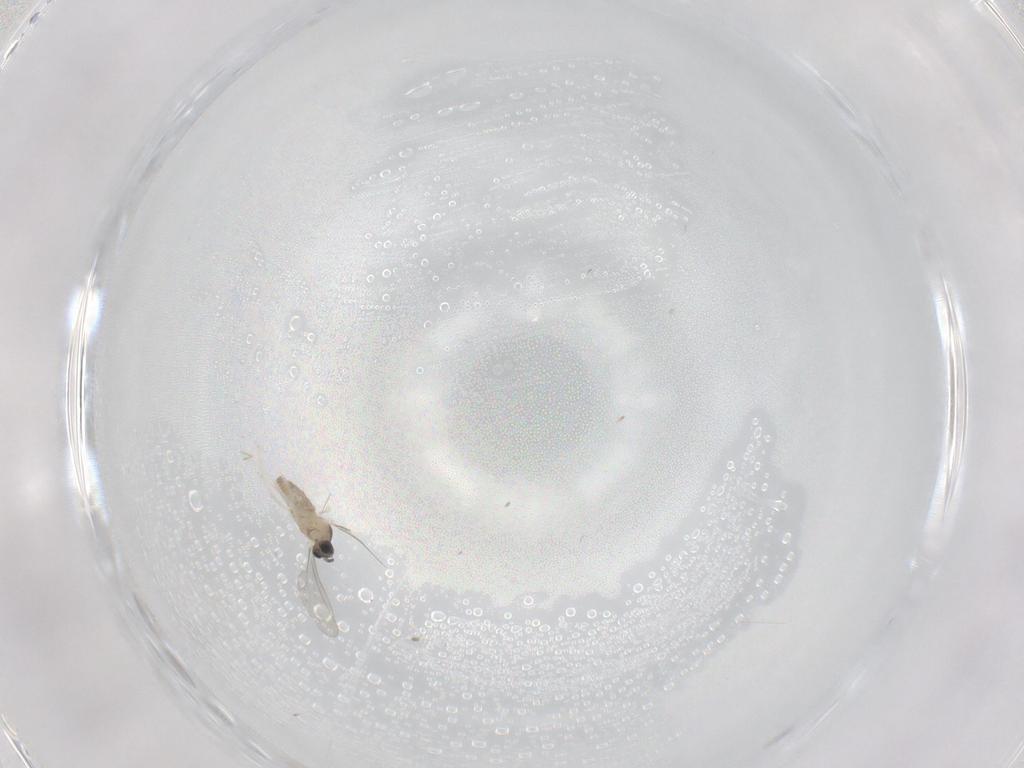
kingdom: Animalia
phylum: Arthropoda
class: Insecta
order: Diptera
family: Cecidomyiidae
